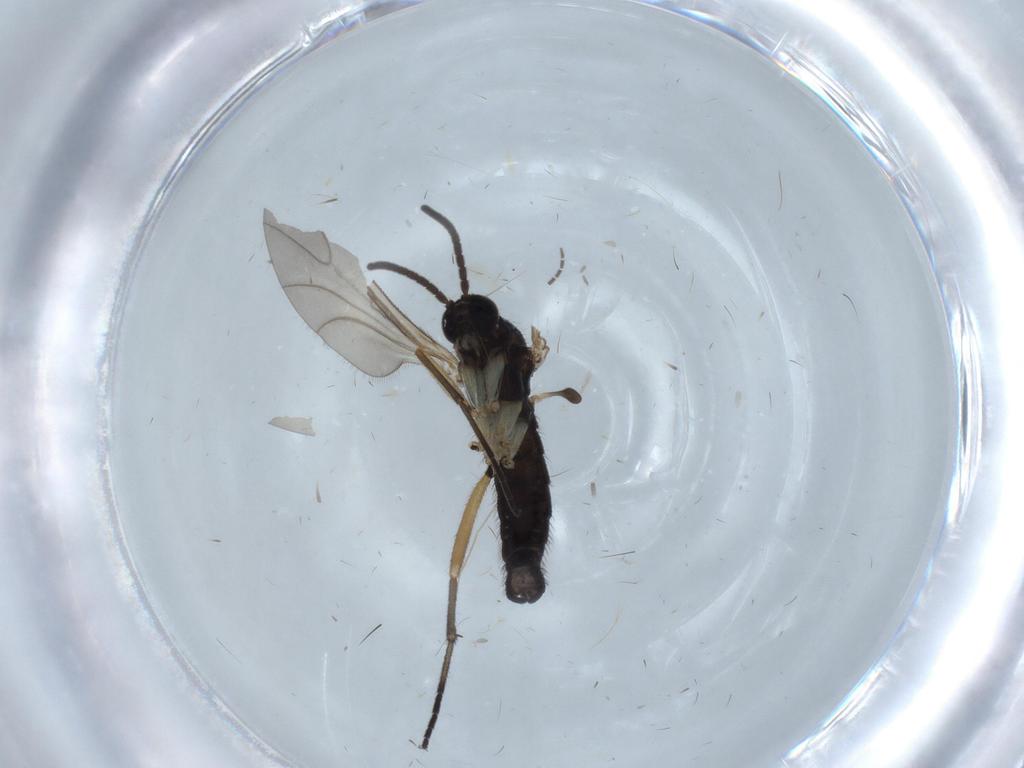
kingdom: Animalia
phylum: Arthropoda
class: Insecta
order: Diptera
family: Sciaridae
